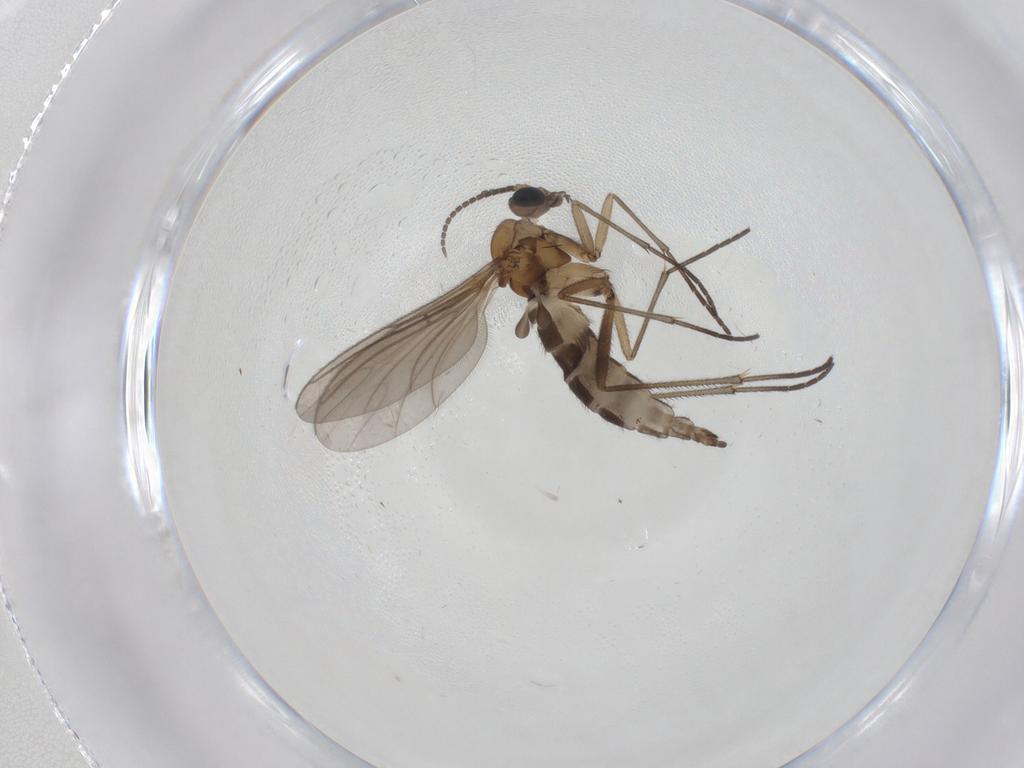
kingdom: Animalia
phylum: Arthropoda
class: Insecta
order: Diptera
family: Sciaridae
